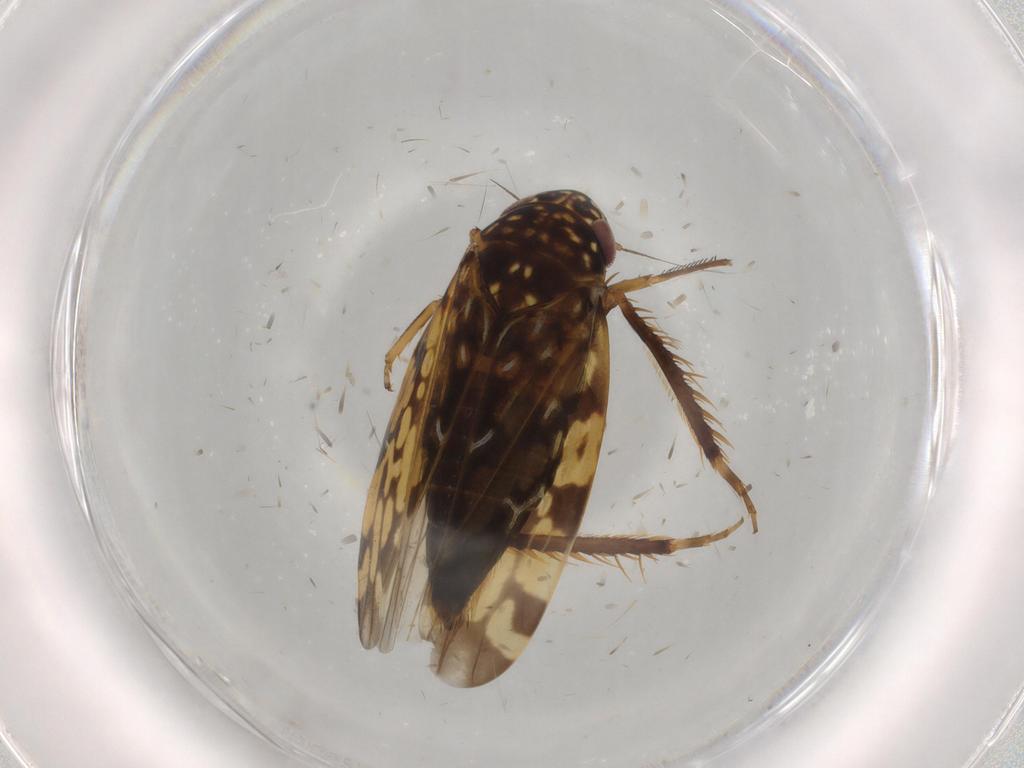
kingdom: Animalia
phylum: Arthropoda
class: Insecta
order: Hemiptera
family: Cicadellidae
